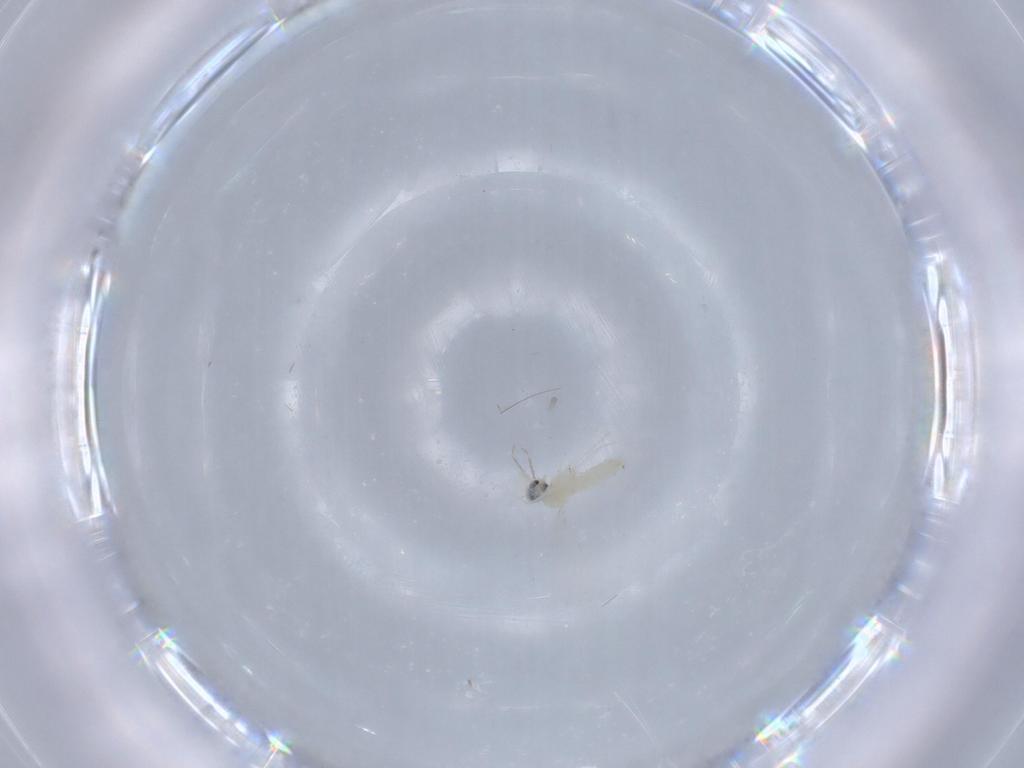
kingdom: Animalia
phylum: Arthropoda
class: Insecta
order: Diptera
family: Cecidomyiidae
